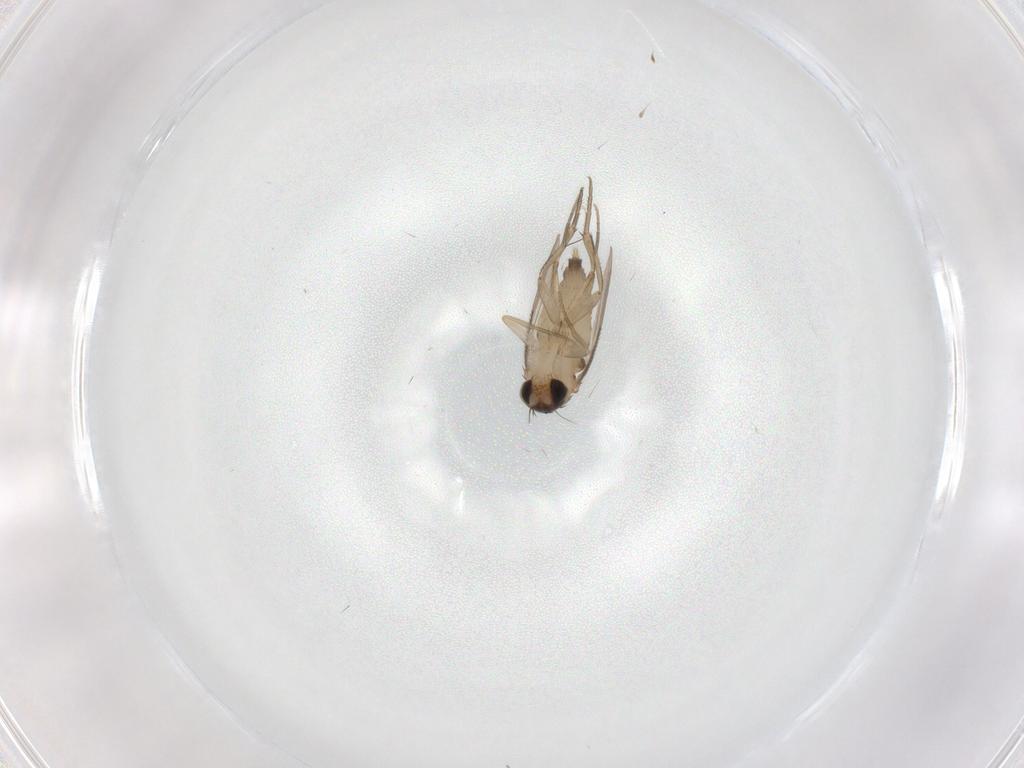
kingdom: Animalia
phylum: Arthropoda
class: Insecta
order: Diptera
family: Phoridae
